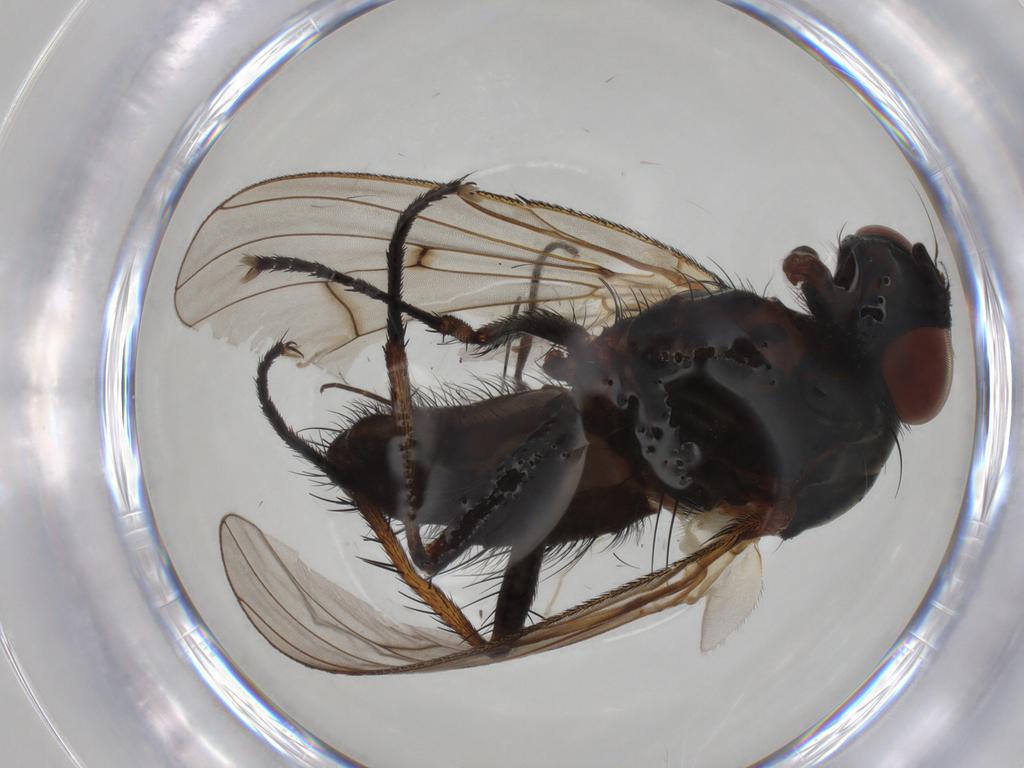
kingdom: Animalia
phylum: Arthropoda
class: Insecta
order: Diptera
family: Anthomyiidae
